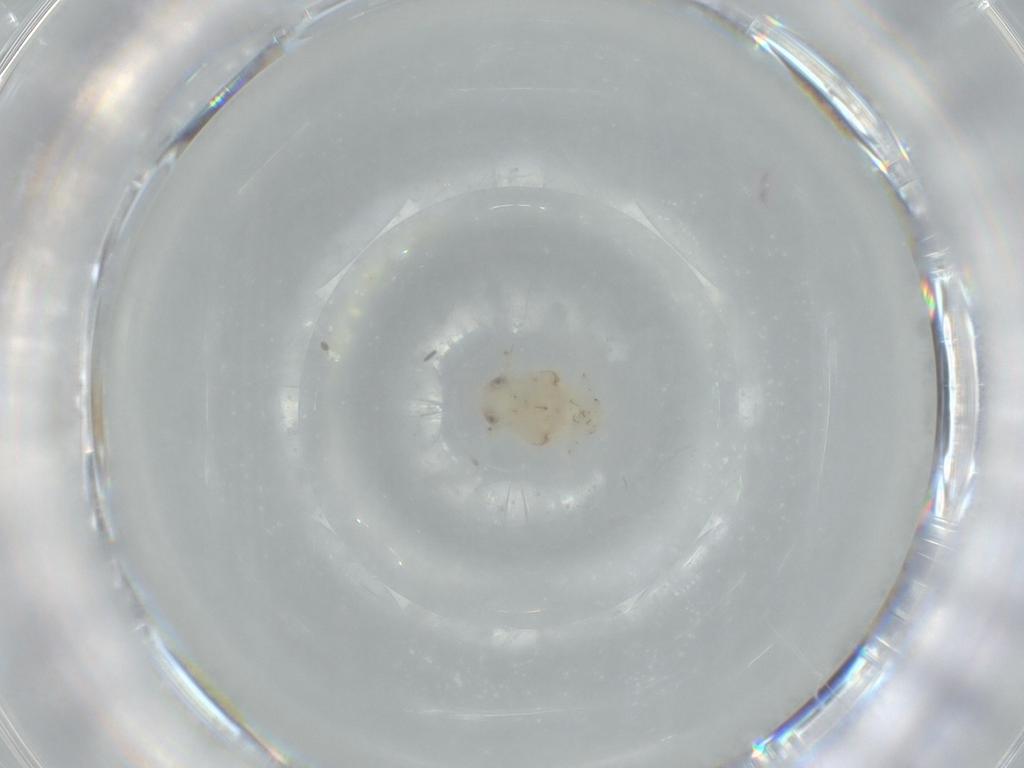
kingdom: Animalia
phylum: Arthropoda
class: Insecta
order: Hemiptera
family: Nogodinidae
